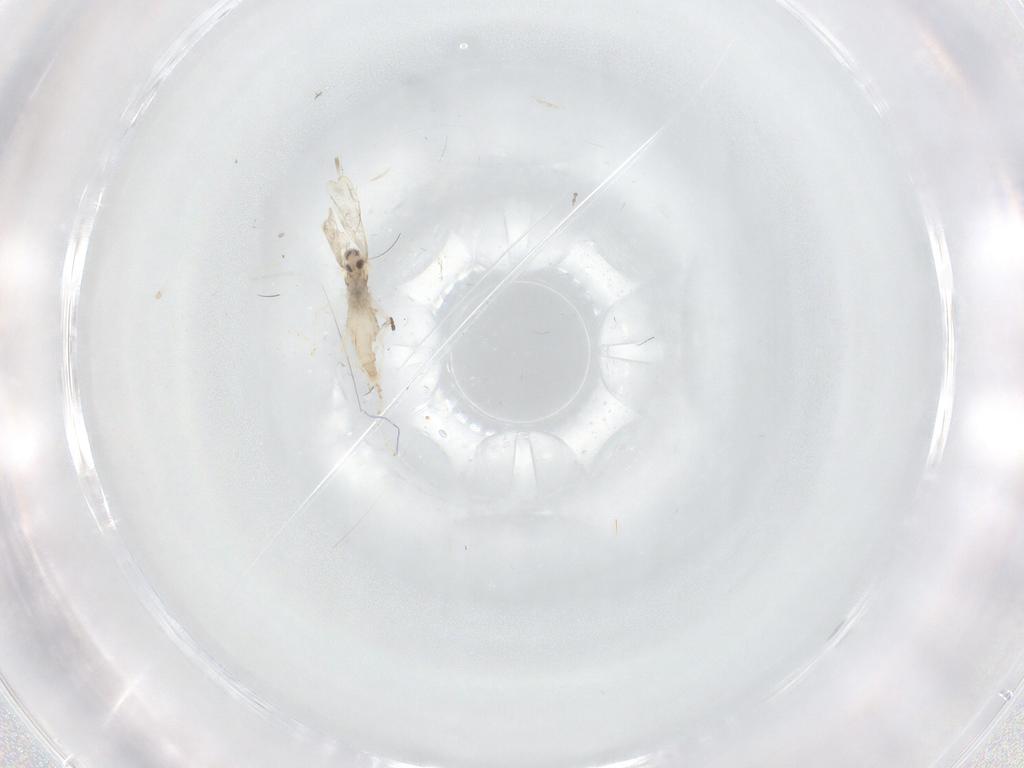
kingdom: Animalia
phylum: Arthropoda
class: Insecta
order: Diptera
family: Cecidomyiidae
